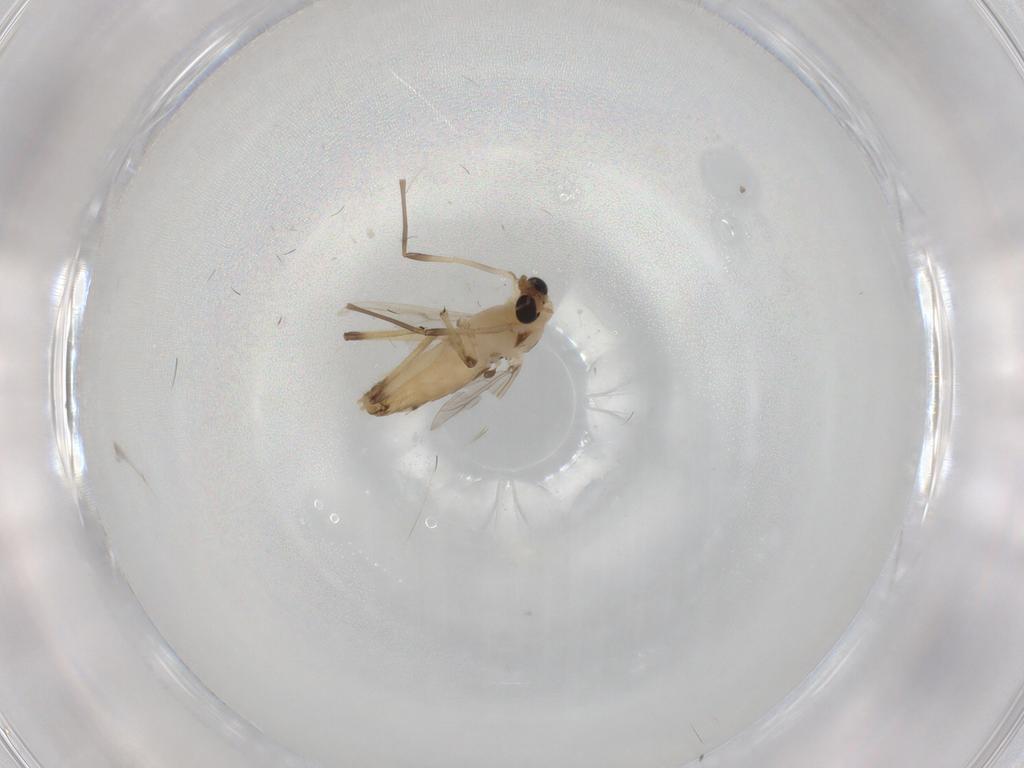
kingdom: Animalia
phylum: Arthropoda
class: Insecta
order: Diptera
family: Chironomidae
